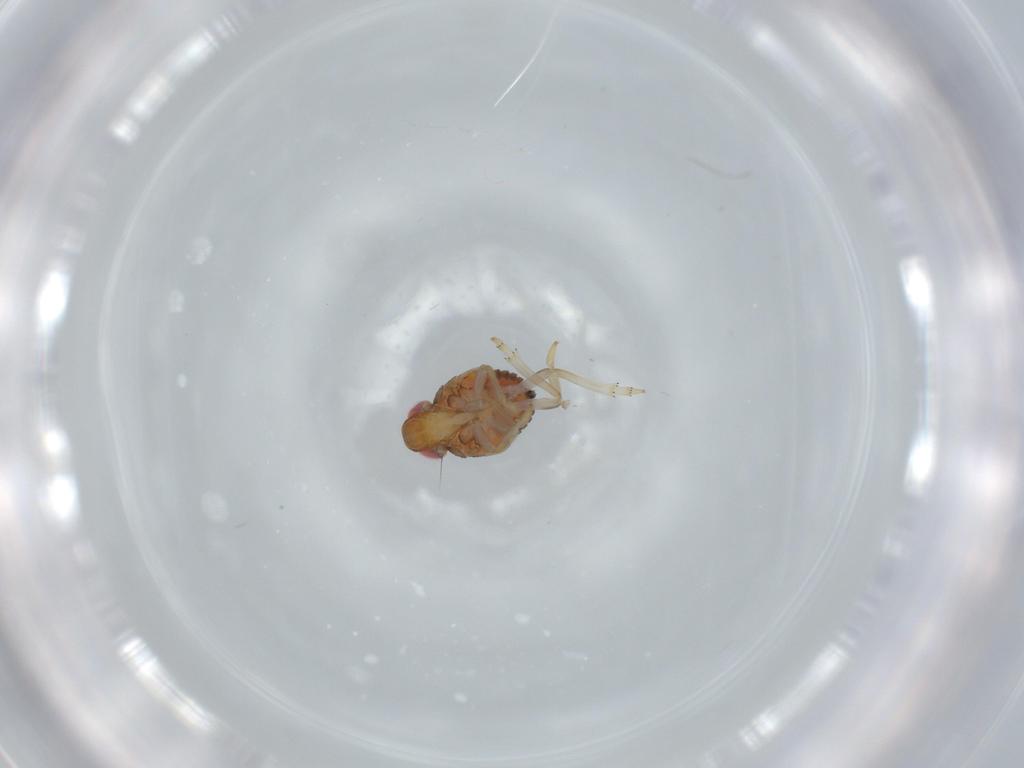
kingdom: Animalia
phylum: Arthropoda
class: Insecta
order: Hemiptera
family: Issidae
